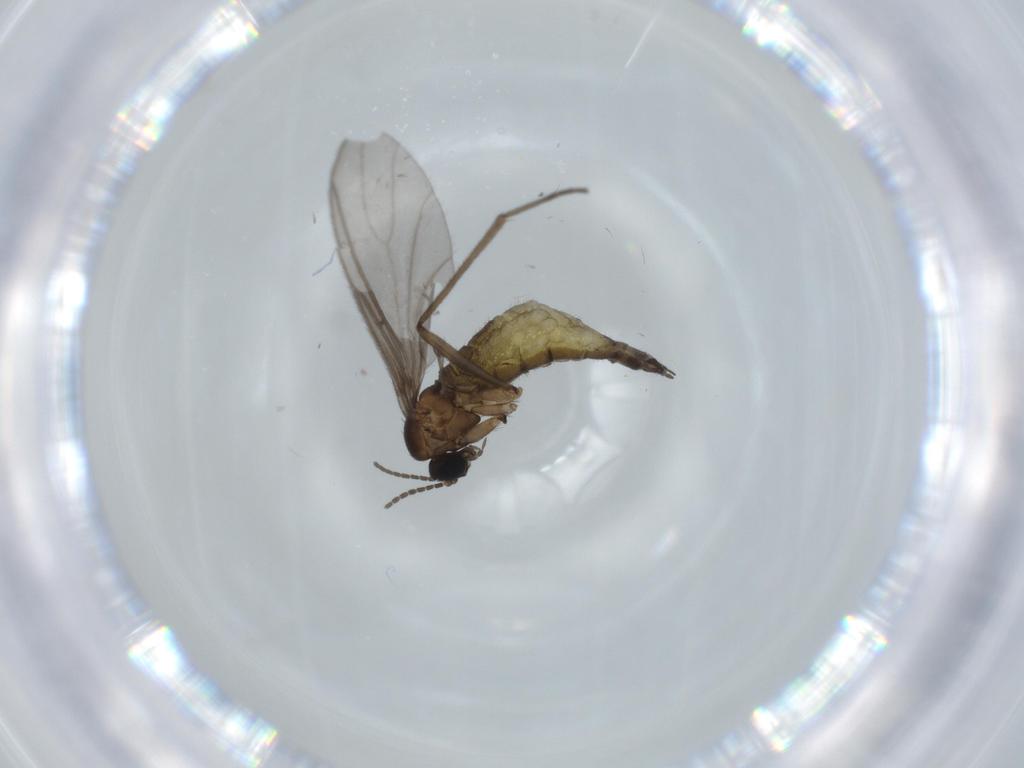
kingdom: Animalia
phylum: Arthropoda
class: Insecta
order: Diptera
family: Sciaridae
